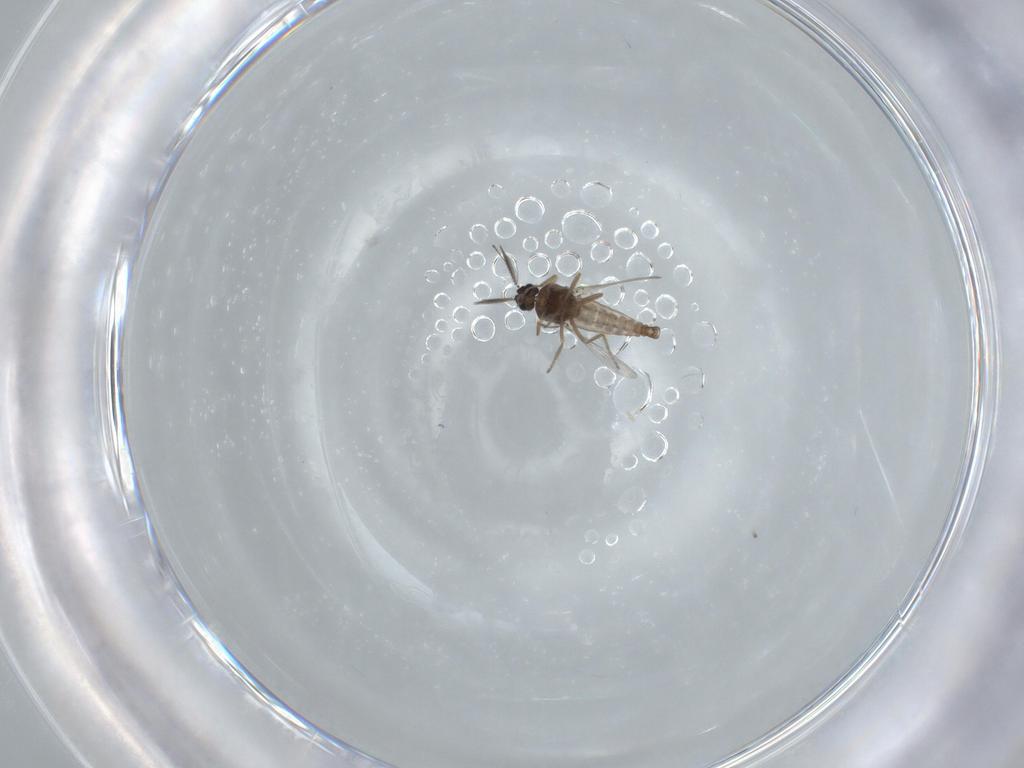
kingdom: Animalia
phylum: Arthropoda
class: Insecta
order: Diptera
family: Ceratopogonidae
